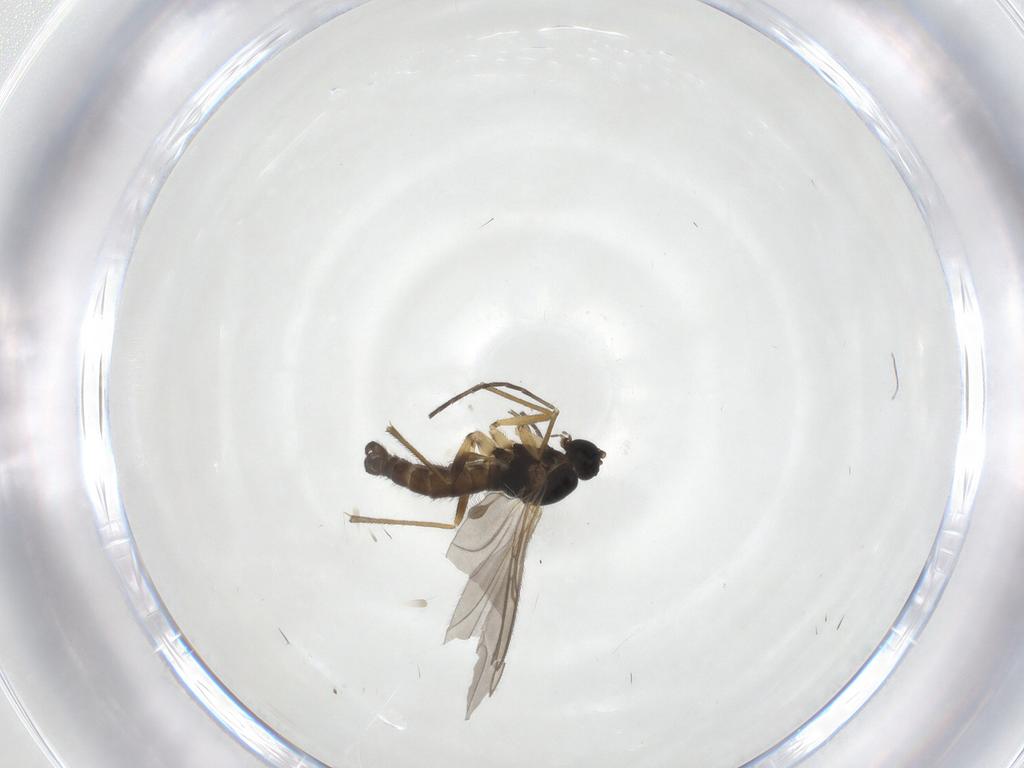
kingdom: Animalia
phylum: Arthropoda
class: Insecta
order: Diptera
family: Sciaridae
